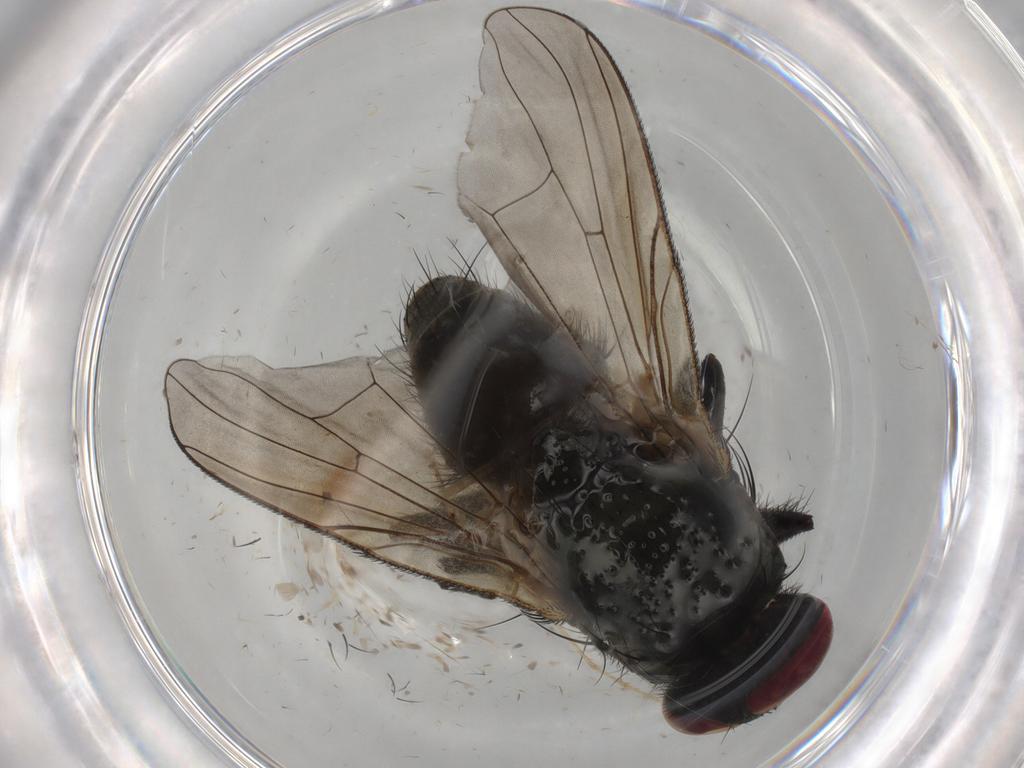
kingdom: Animalia
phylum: Arthropoda
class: Insecta
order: Diptera
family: Muscidae
